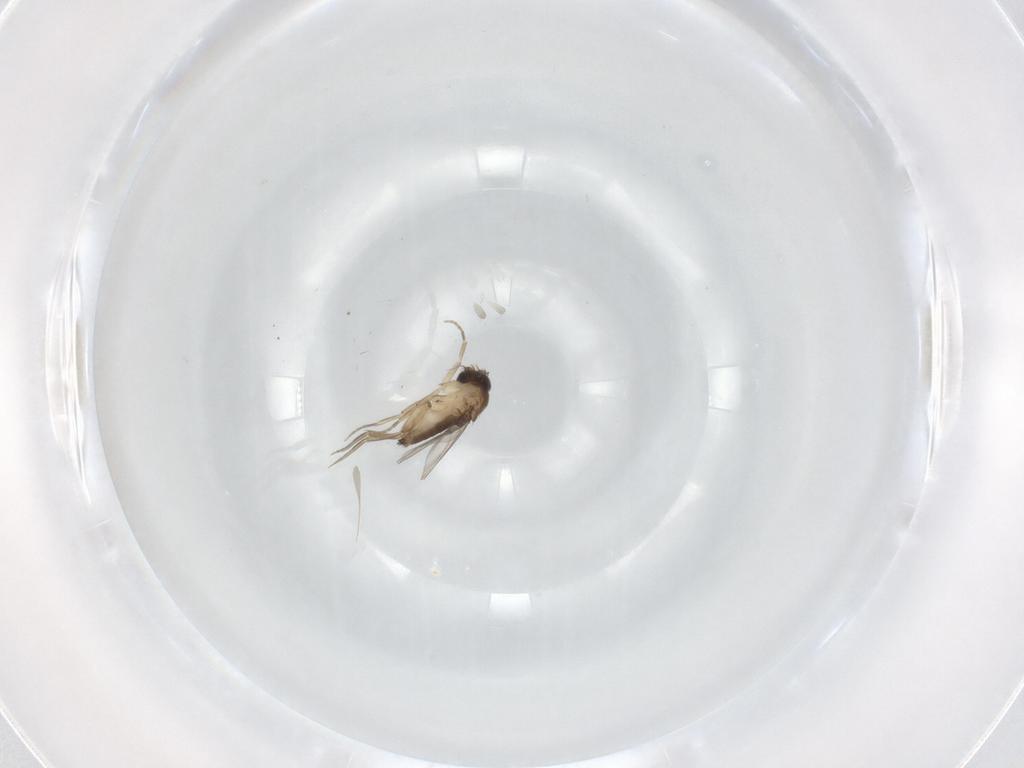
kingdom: Animalia
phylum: Arthropoda
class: Insecta
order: Diptera
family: Phoridae
